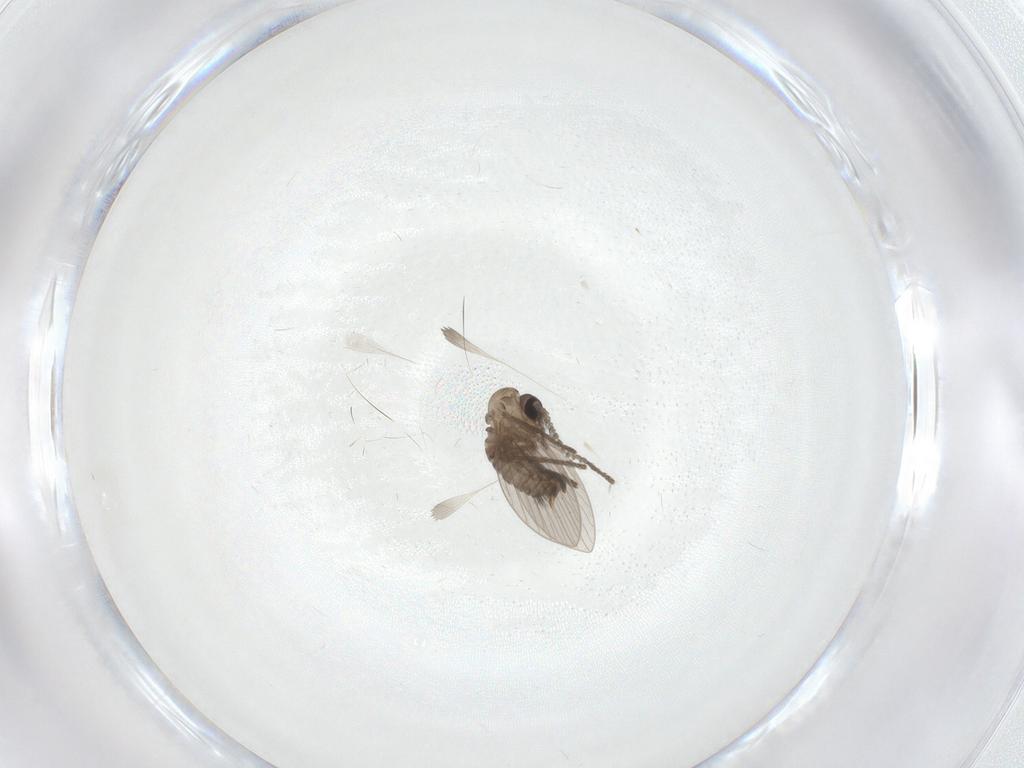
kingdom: Animalia
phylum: Arthropoda
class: Insecta
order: Diptera
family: Psychodidae
